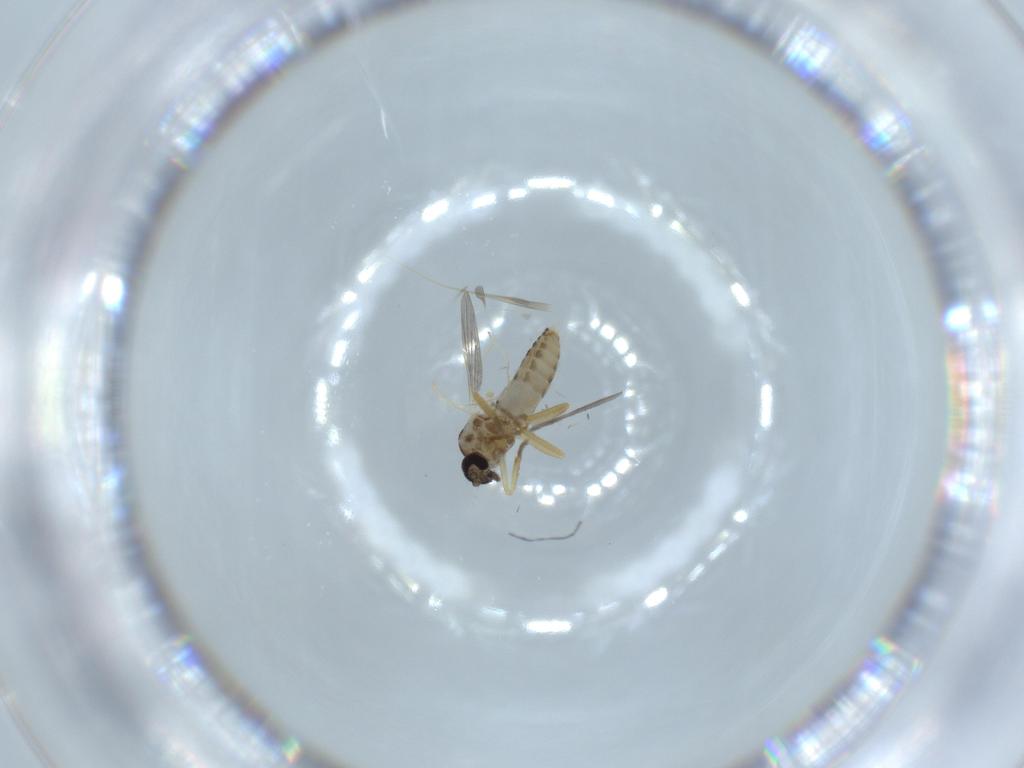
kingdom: Animalia
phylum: Arthropoda
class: Insecta
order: Diptera
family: Ceratopogonidae
